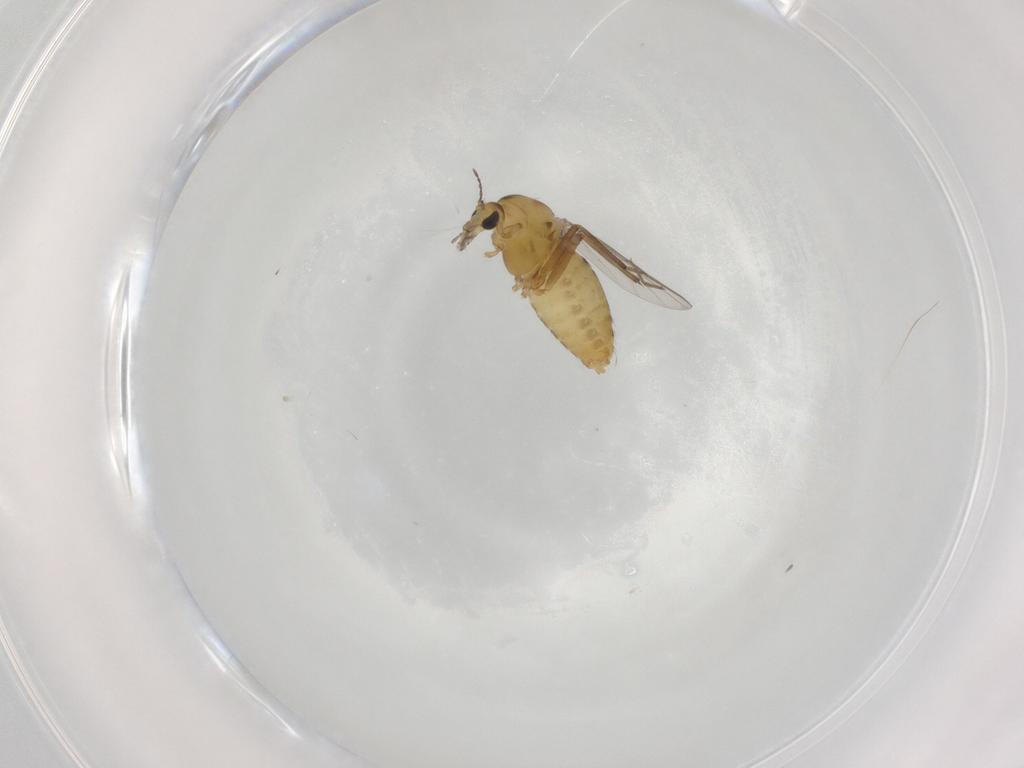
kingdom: Animalia
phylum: Arthropoda
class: Insecta
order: Diptera
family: Chironomidae
